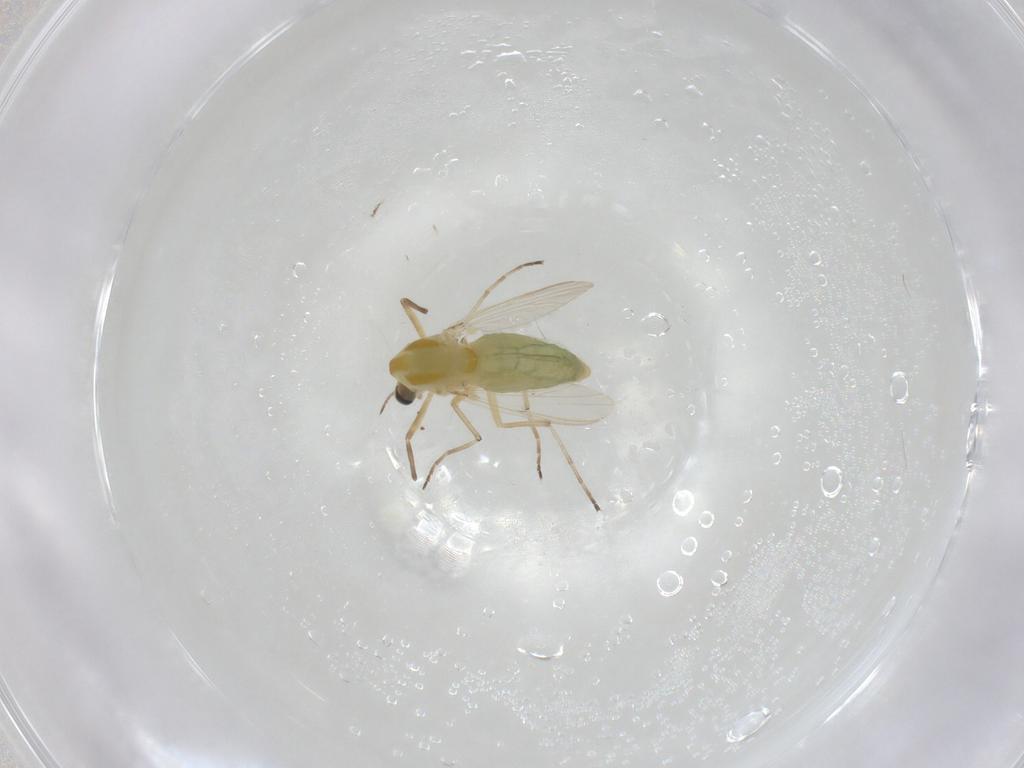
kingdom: Animalia
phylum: Arthropoda
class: Insecta
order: Diptera
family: Chironomidae
